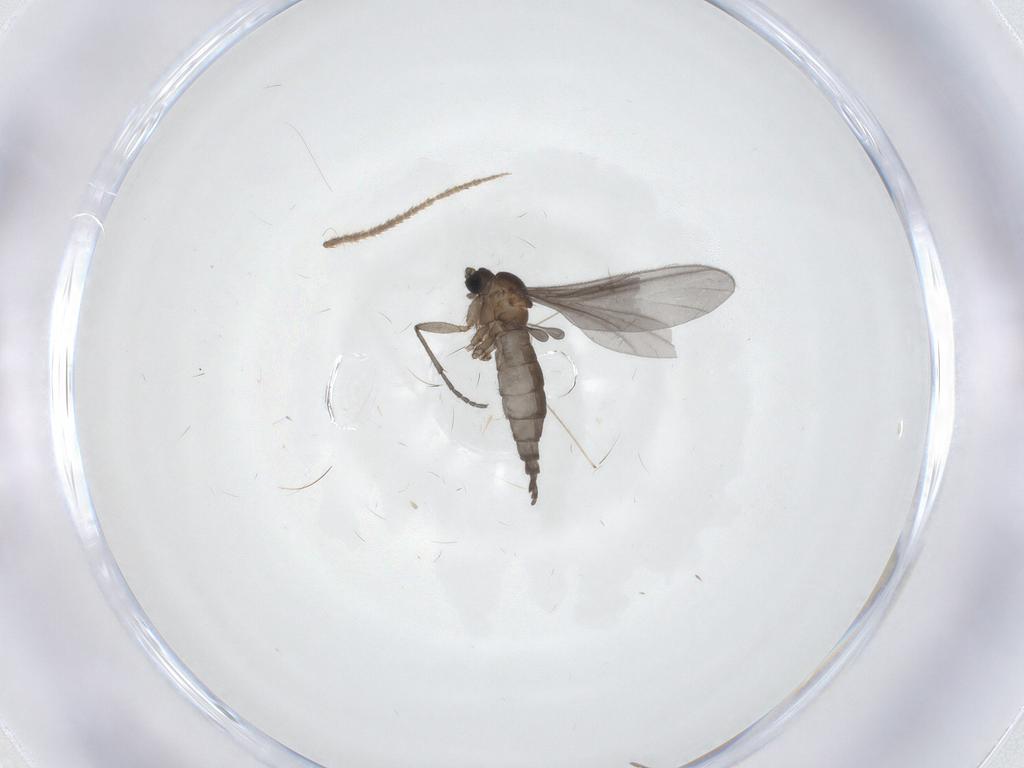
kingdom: Animalia
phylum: Arthropoda
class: Insecta
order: Diptera
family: Sciaridae
